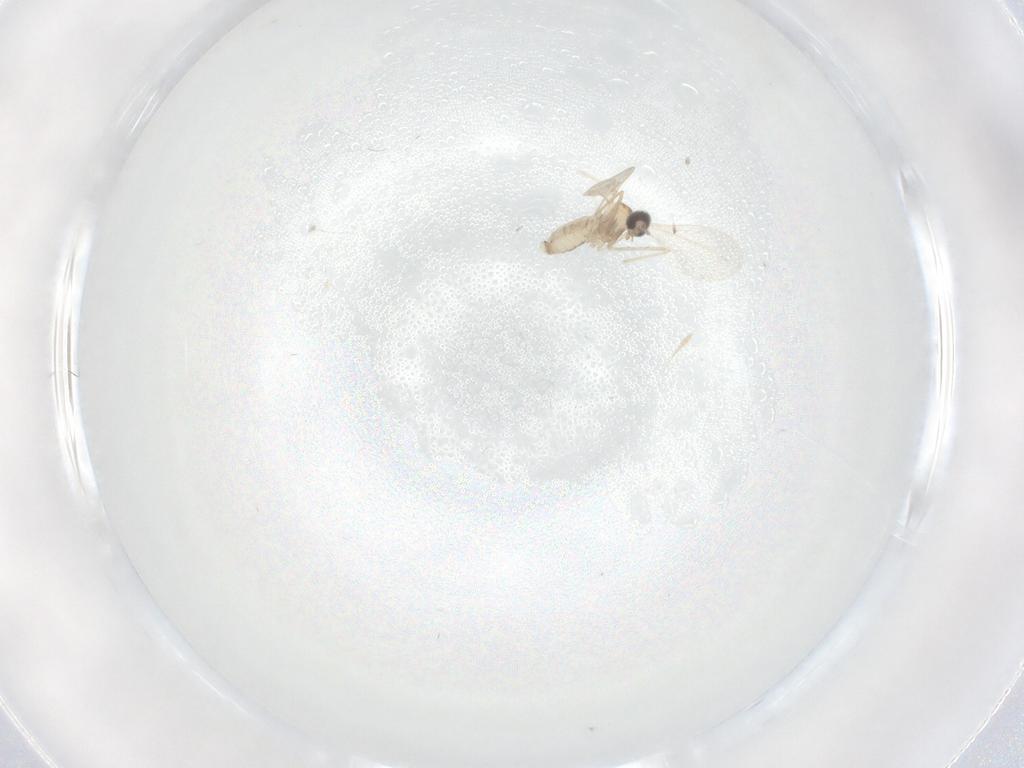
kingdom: Animalia
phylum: Arthropoda
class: Insecta
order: Diptera
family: Cecidomyiidae
